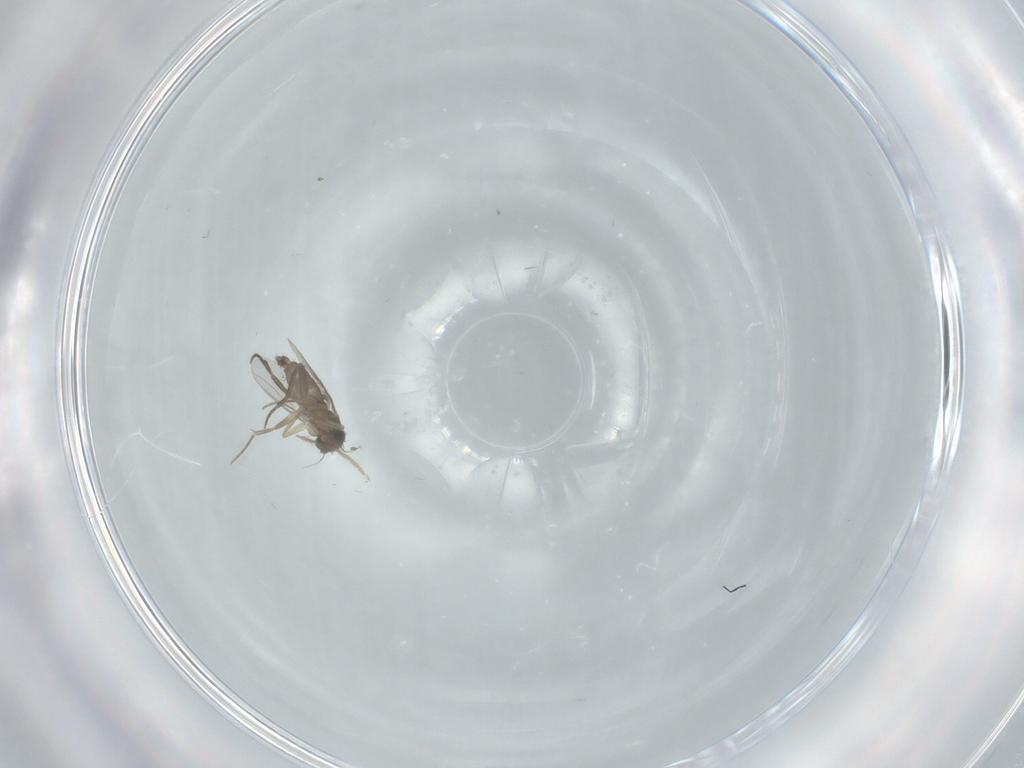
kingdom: Animalia
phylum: Arthropoda
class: Insecta
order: Diptera
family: Phoridae
